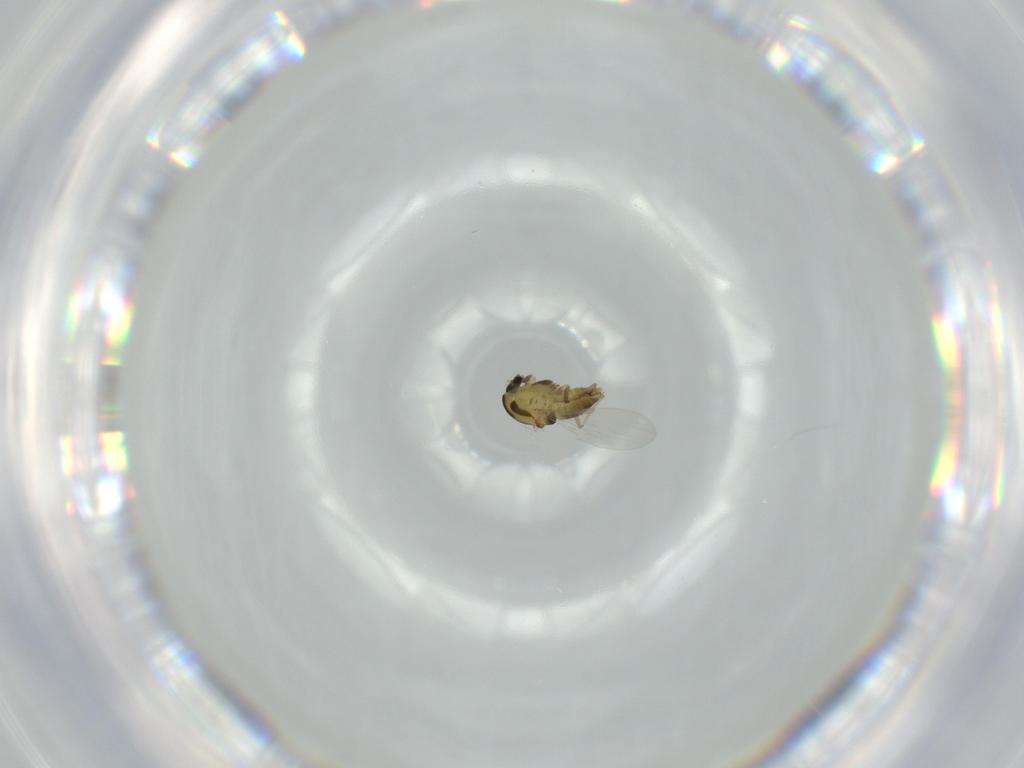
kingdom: Animalia
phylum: Arthropoda
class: Insecta
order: Diptera
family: Chironomidae
